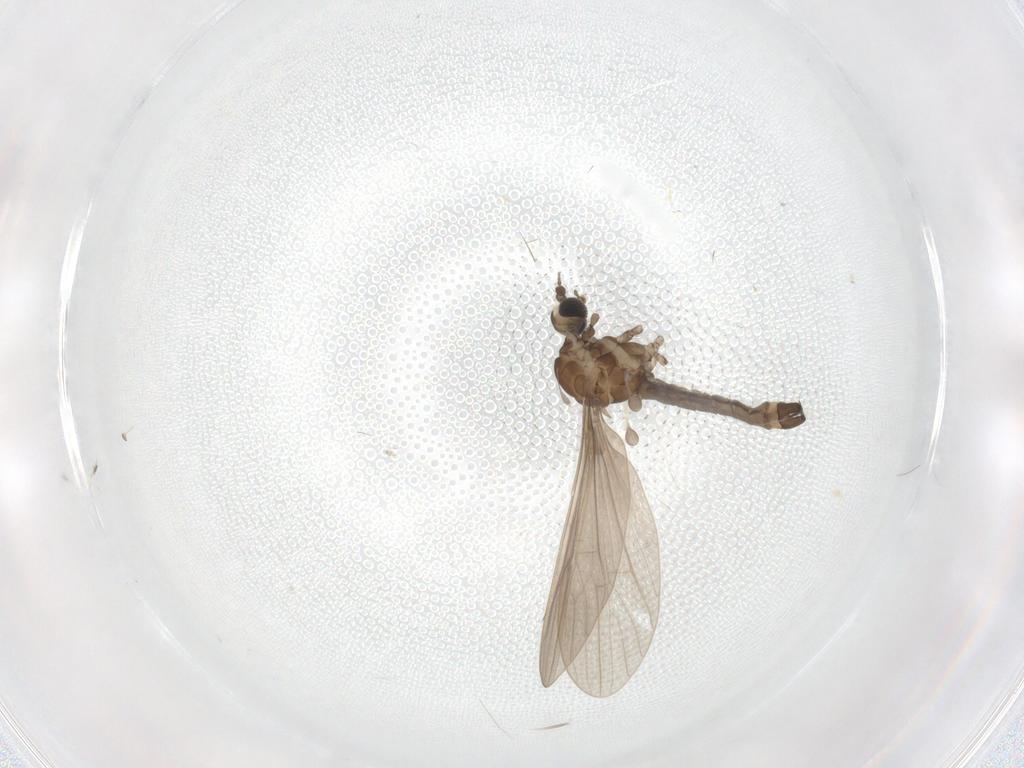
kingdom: Animalia
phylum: Arthropoda
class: Insecta
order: Diptera
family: Limoniidae
